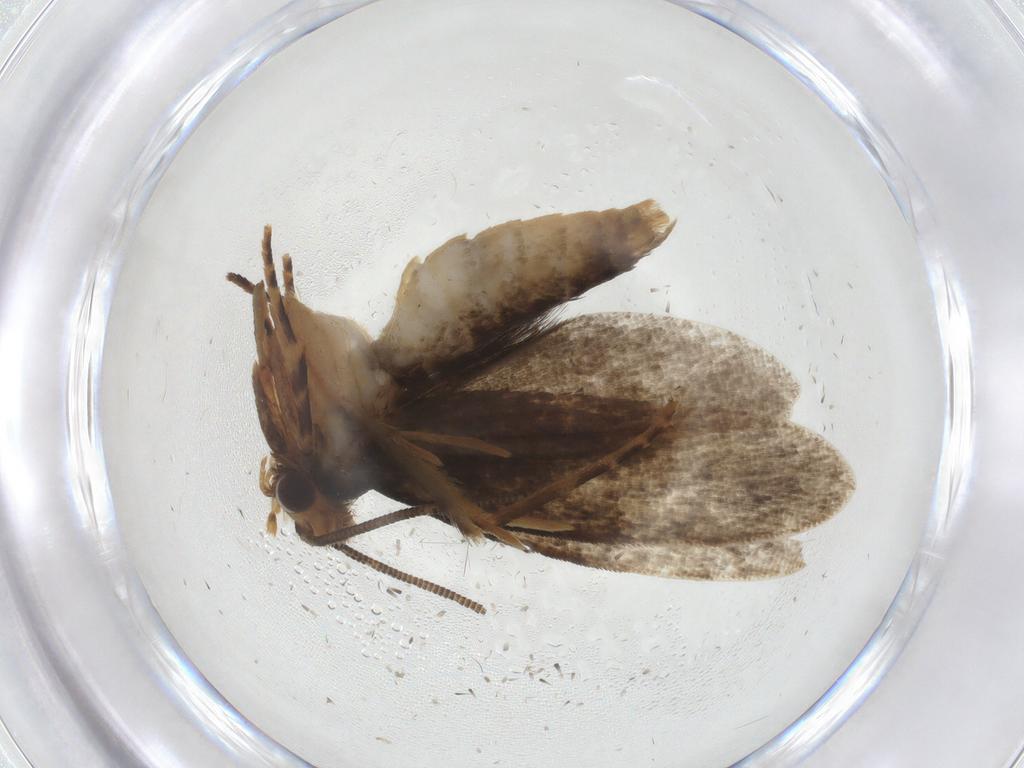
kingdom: Animalia
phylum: Arthropoda
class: Insecta
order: Lepidoptera
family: Tineidae
